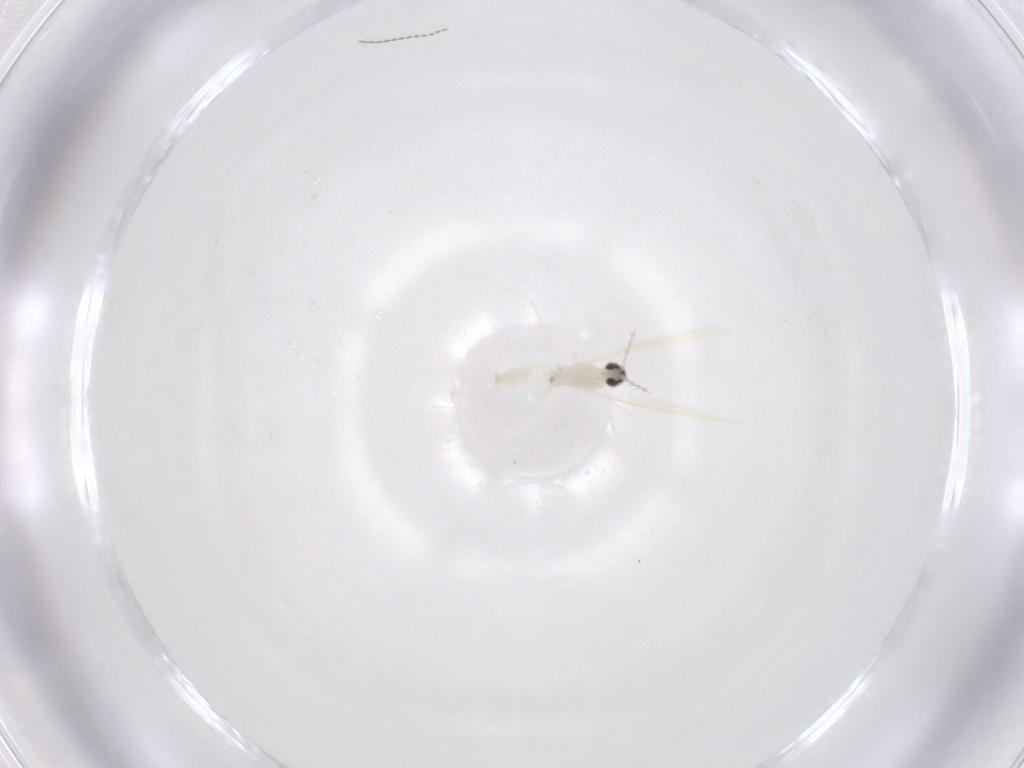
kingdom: Animalia
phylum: Arthropoda
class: Insecta
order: Diptera
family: Cecidomyiidae
